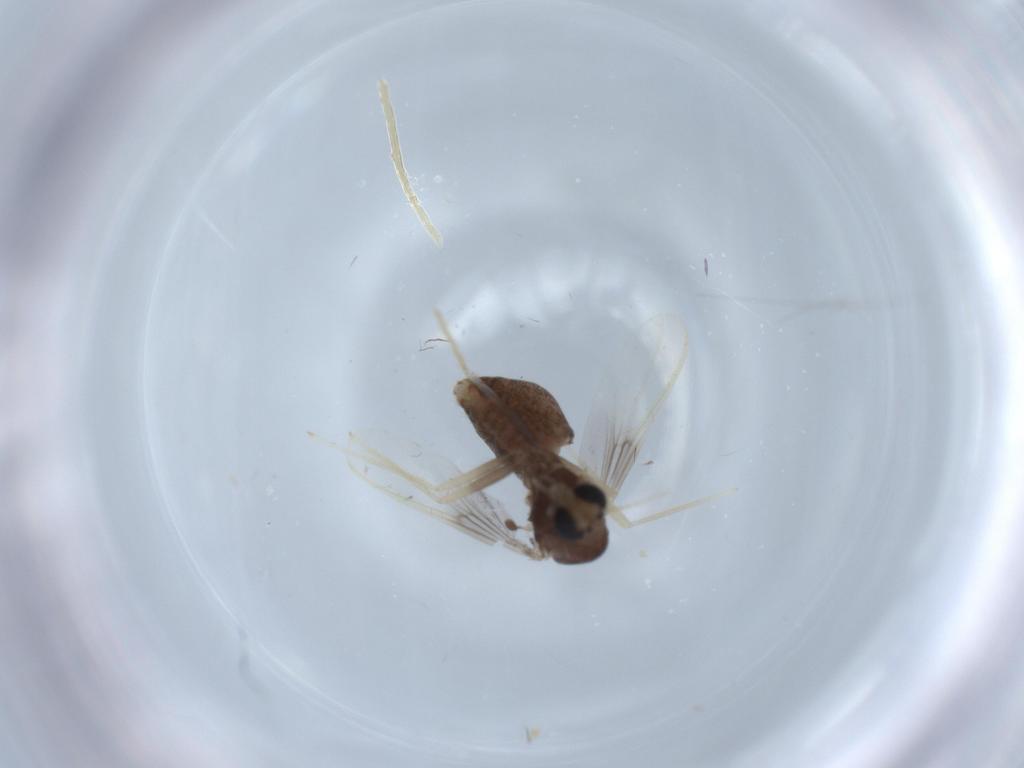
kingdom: Animalia
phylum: Arthropoda
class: Insecta
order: Diptera
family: Chironomidae
